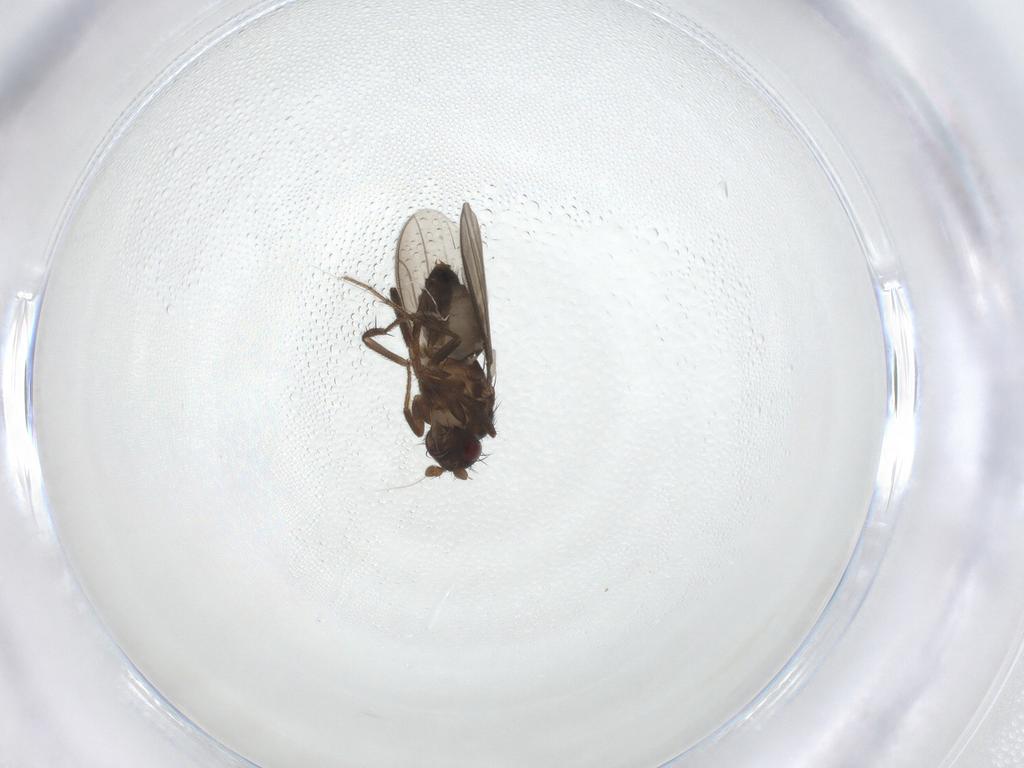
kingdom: Animalia
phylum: Arthropoda
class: Insecta
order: Diptera
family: Sphaeroceridae
